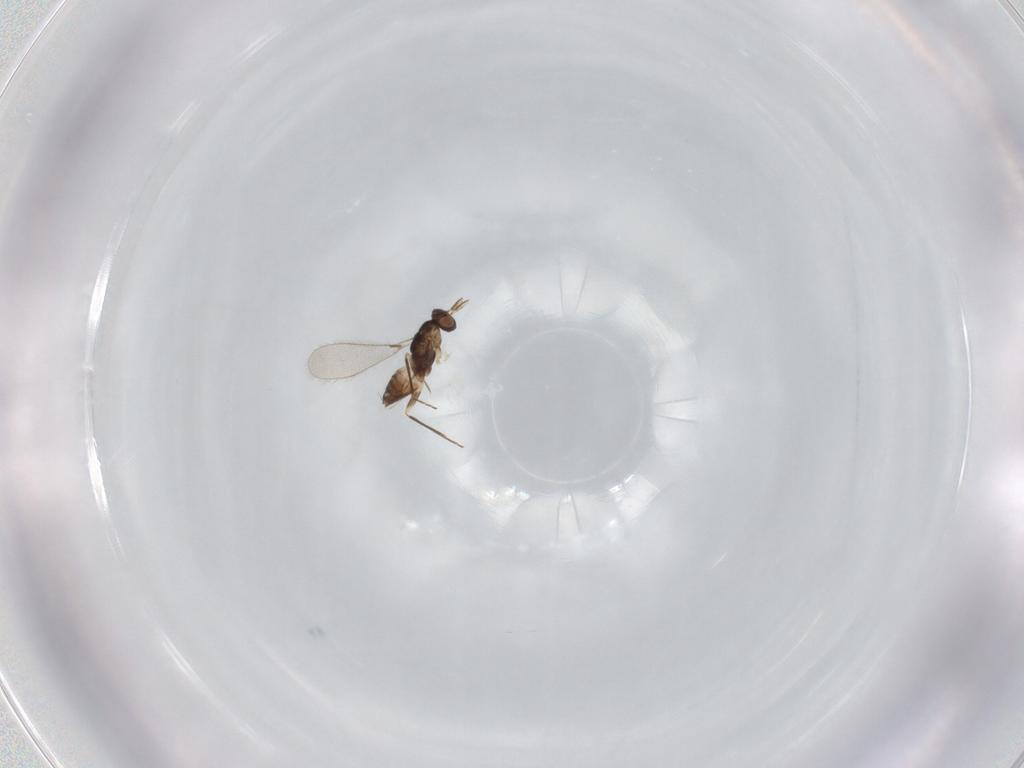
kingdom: Animalia
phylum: Arthropoda
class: Insecta
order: Hymenoptera
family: Mymaridae
